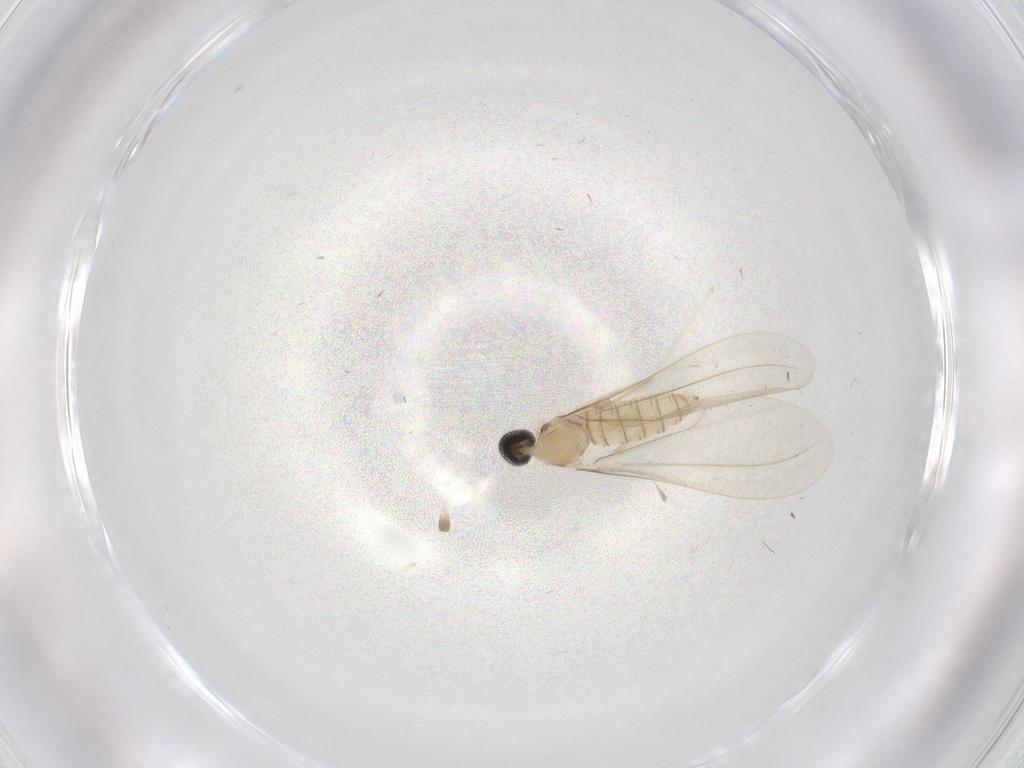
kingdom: Animalia
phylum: Arthropoda
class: Insecta
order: Diptera
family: Cecidomyiidae
